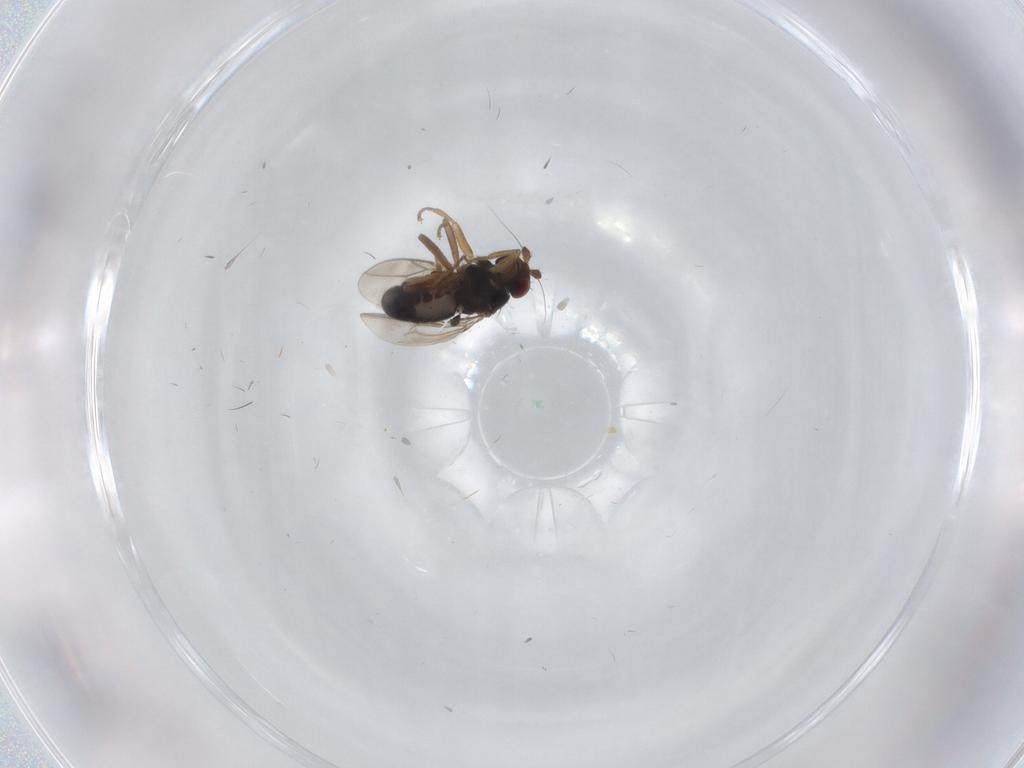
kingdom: Animalia
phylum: Arthropoda
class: Insecta
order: Diptera
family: Sphaeroceridae
